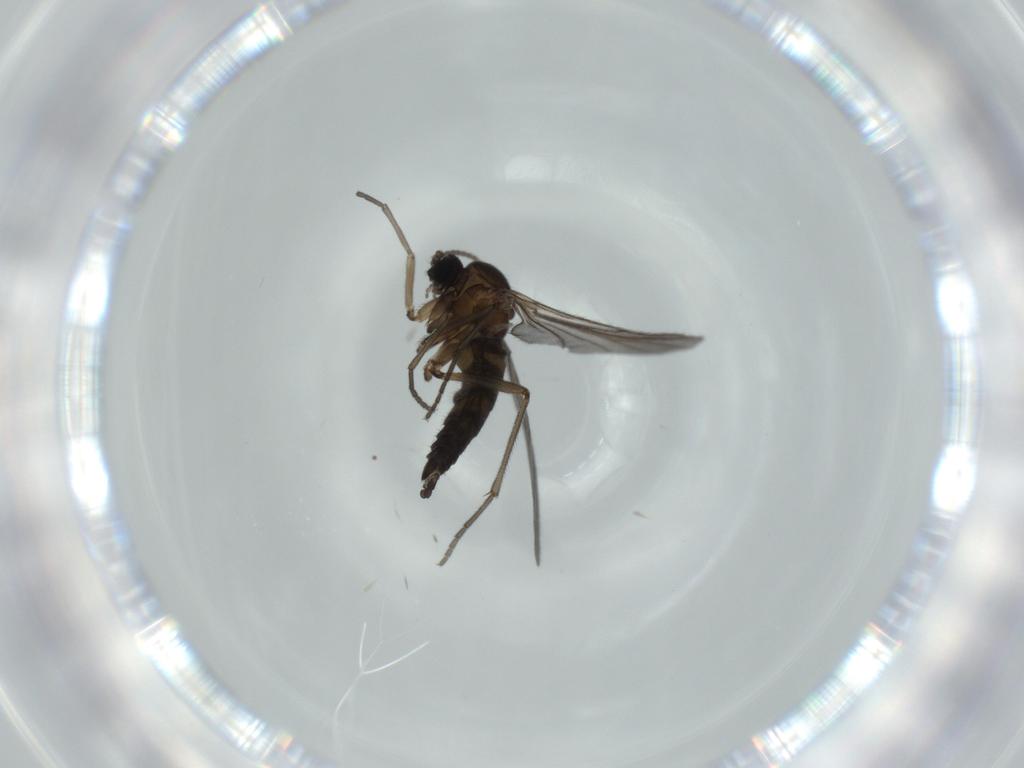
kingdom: Animalia
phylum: Arthropoda
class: Insecta
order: Diptera
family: Sciaridae
